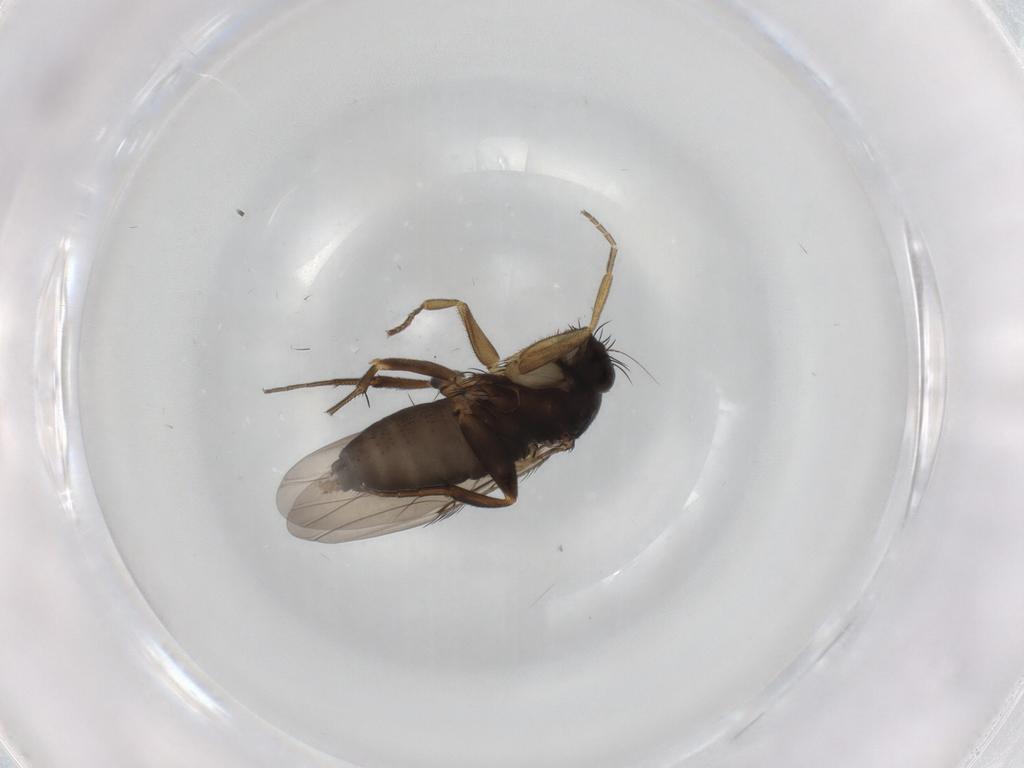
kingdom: Animalia
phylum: Arthropoda
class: Insecta
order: Diptera
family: Phoridae
